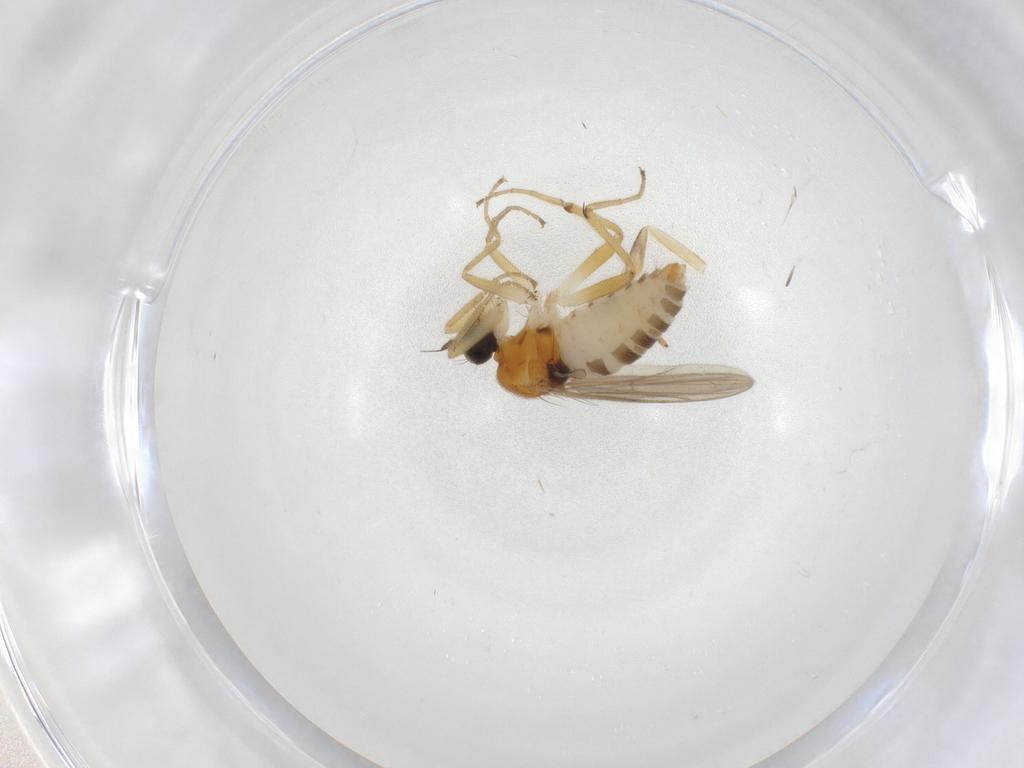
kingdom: Animalia
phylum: Arthropoda
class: Insecta
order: Diptera
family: Hybotidae
